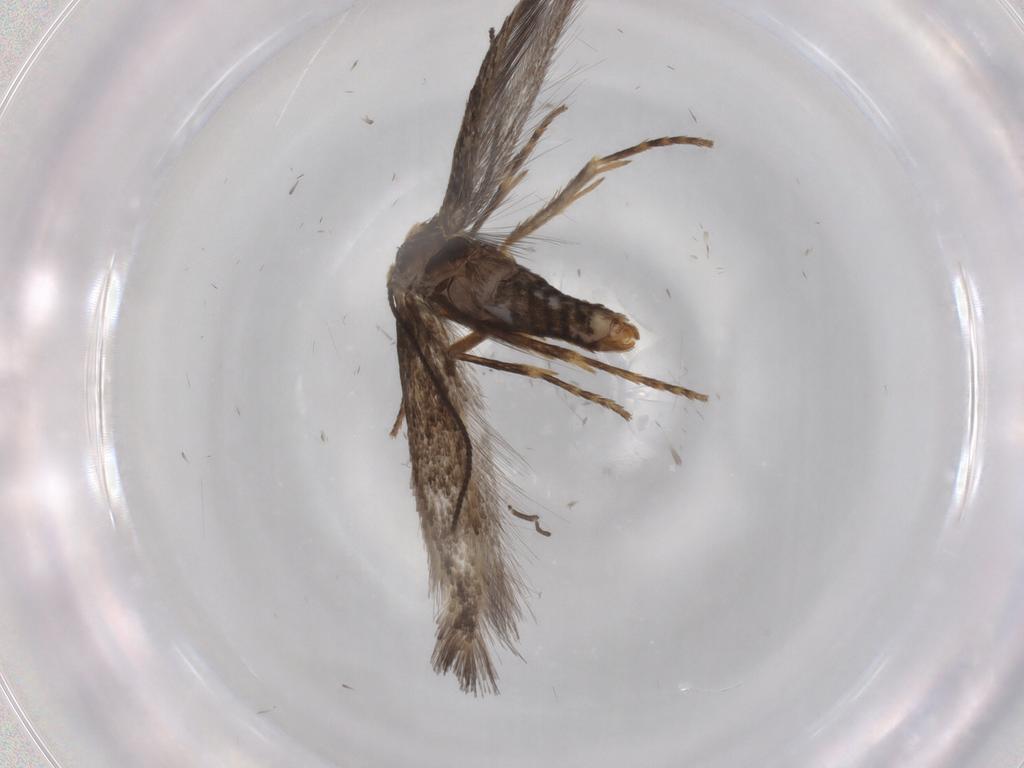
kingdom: Animalia
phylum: Arthropoda
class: Insecta
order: Lepidoptera
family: Nepticulidae
